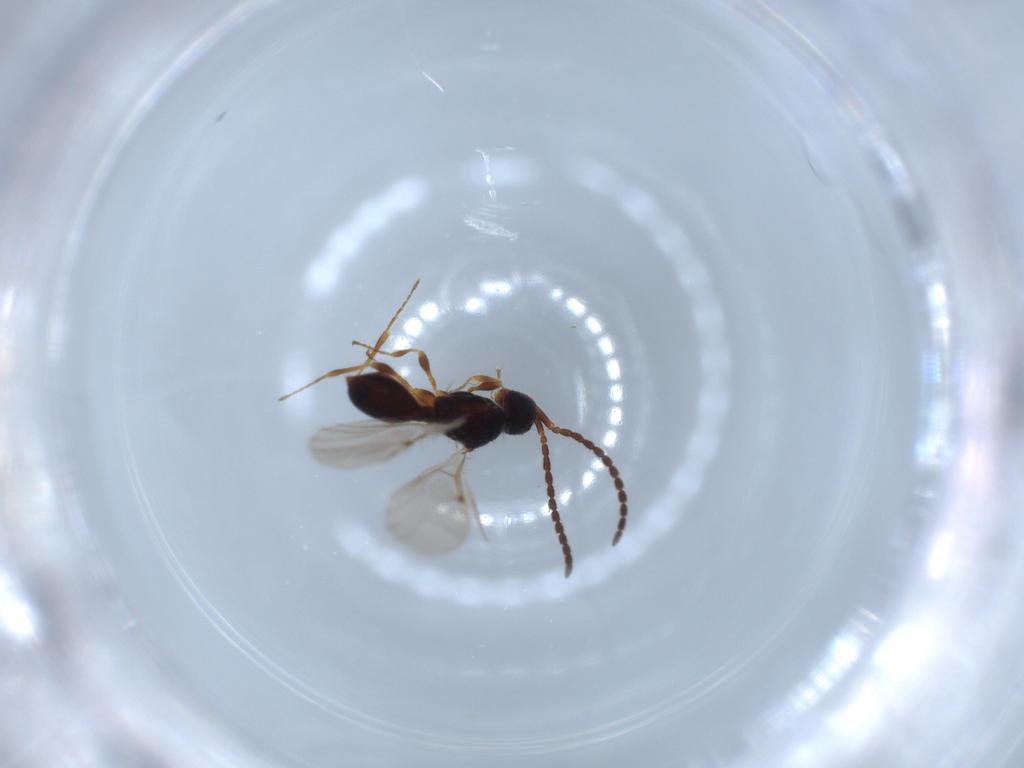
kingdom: Animalia
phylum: Arthropoda
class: Insecta
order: Hymenoptera
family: Diapriidae
